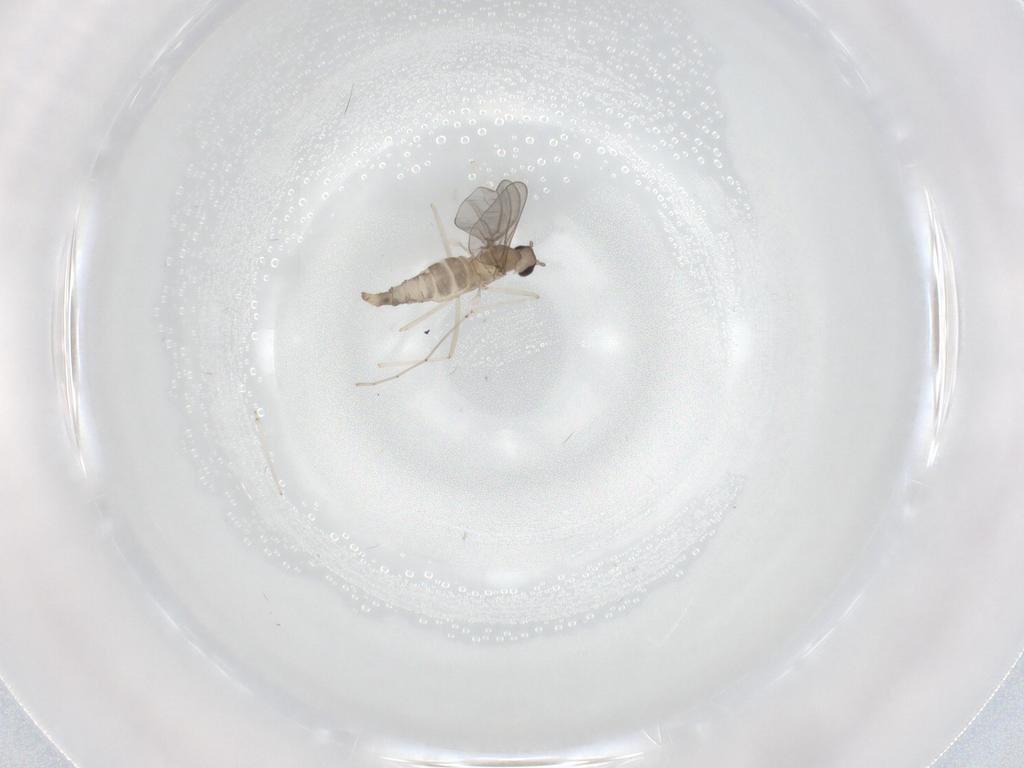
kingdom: Animalia
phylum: Arthropoda
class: Insecta
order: Diptera
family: Cecidomyiidae
